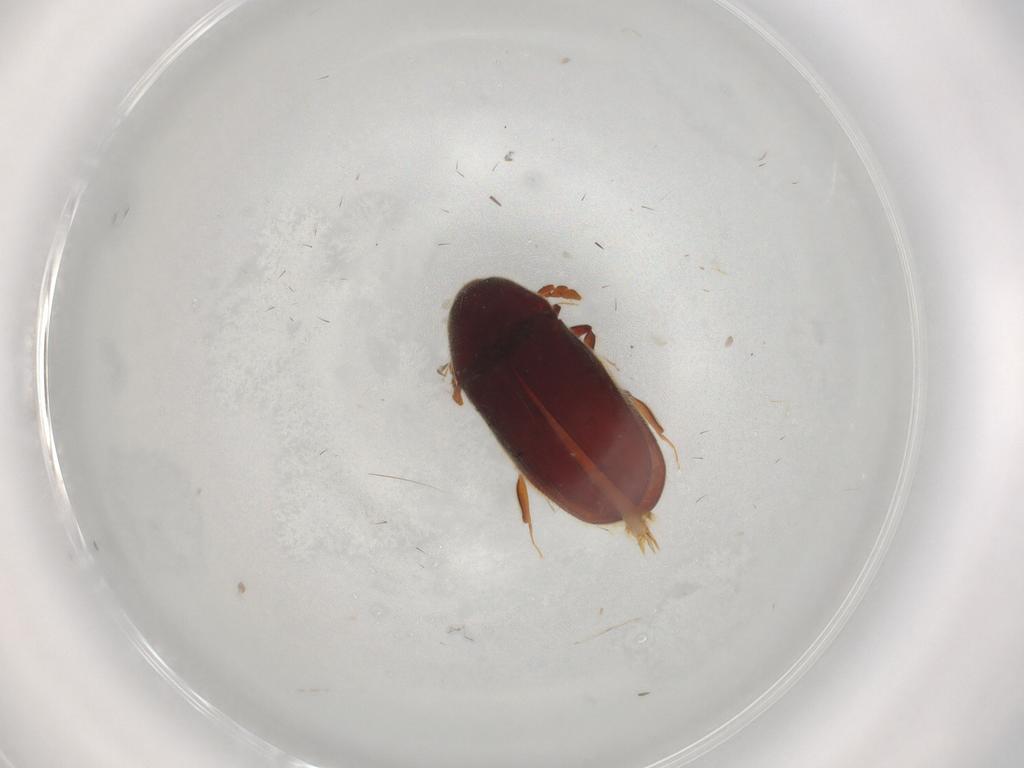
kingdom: Animalia
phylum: Arthropoda
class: Insecta
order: Coleoptera
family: Throscidae
